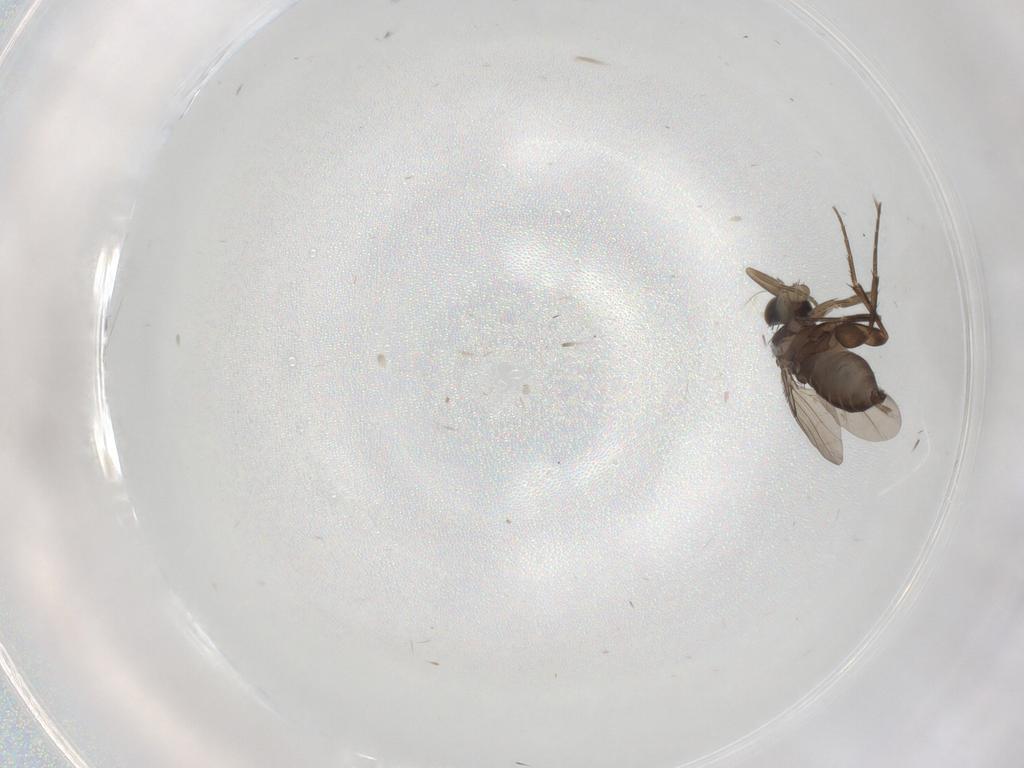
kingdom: Animalia
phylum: Arthropoda
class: Insecta
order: Diptera
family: Phoridae
